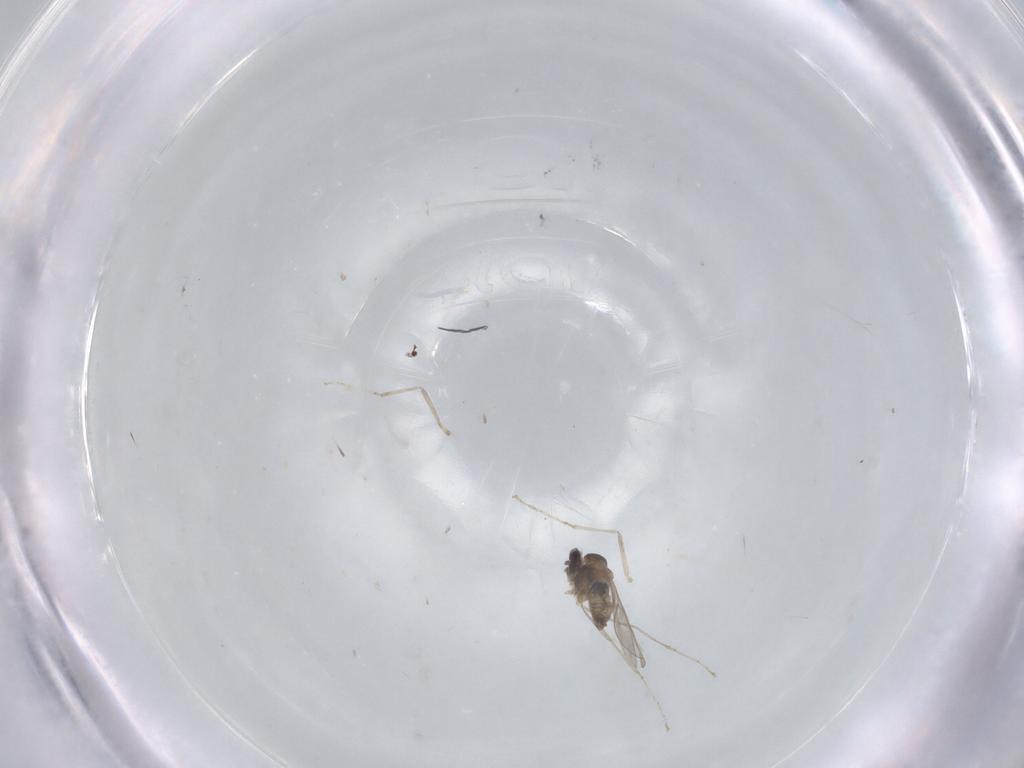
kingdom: Animalia
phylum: Arthropoda
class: Insecta
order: Diptera
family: Cecidomyiidae
